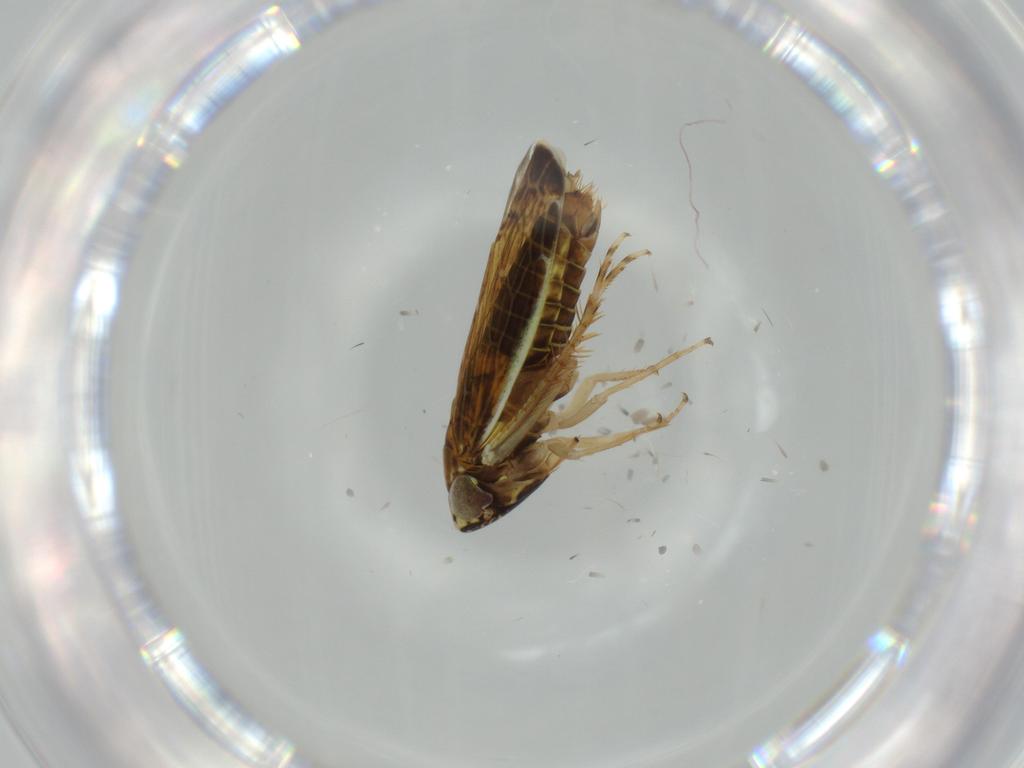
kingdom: Animalia
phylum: Arthropoda
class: Insecta
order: Hemiptera
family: Cicadellidae
